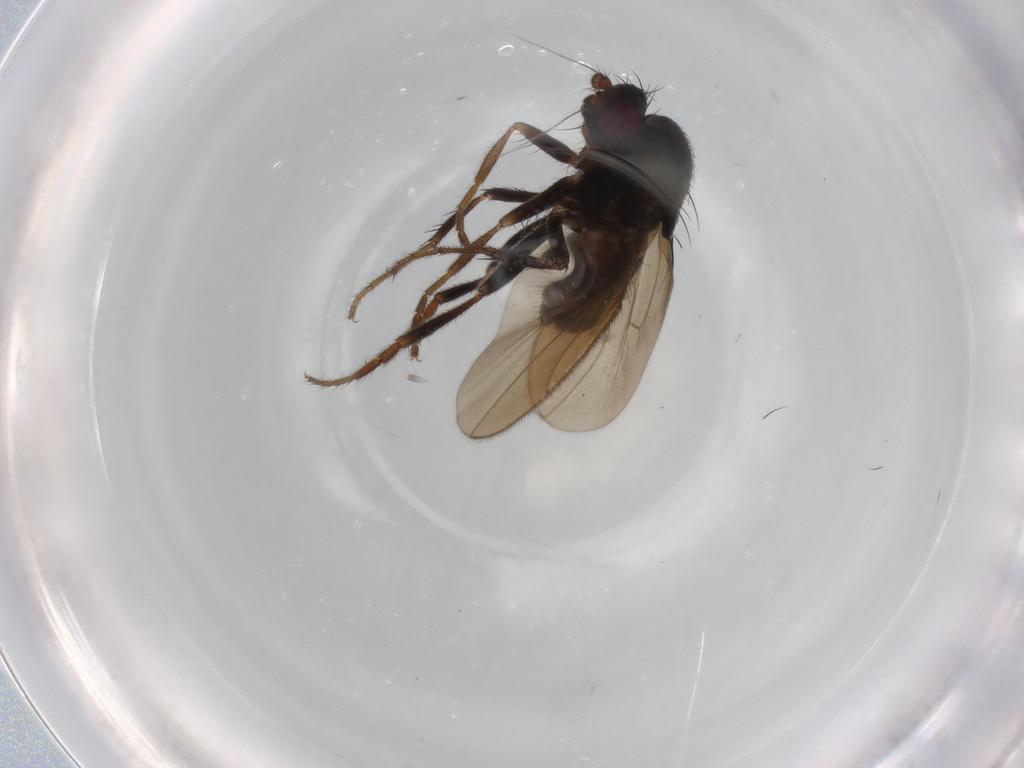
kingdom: Animalia
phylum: Arthropoda
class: Insecta
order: Diptera
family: Sphaeroceridae
